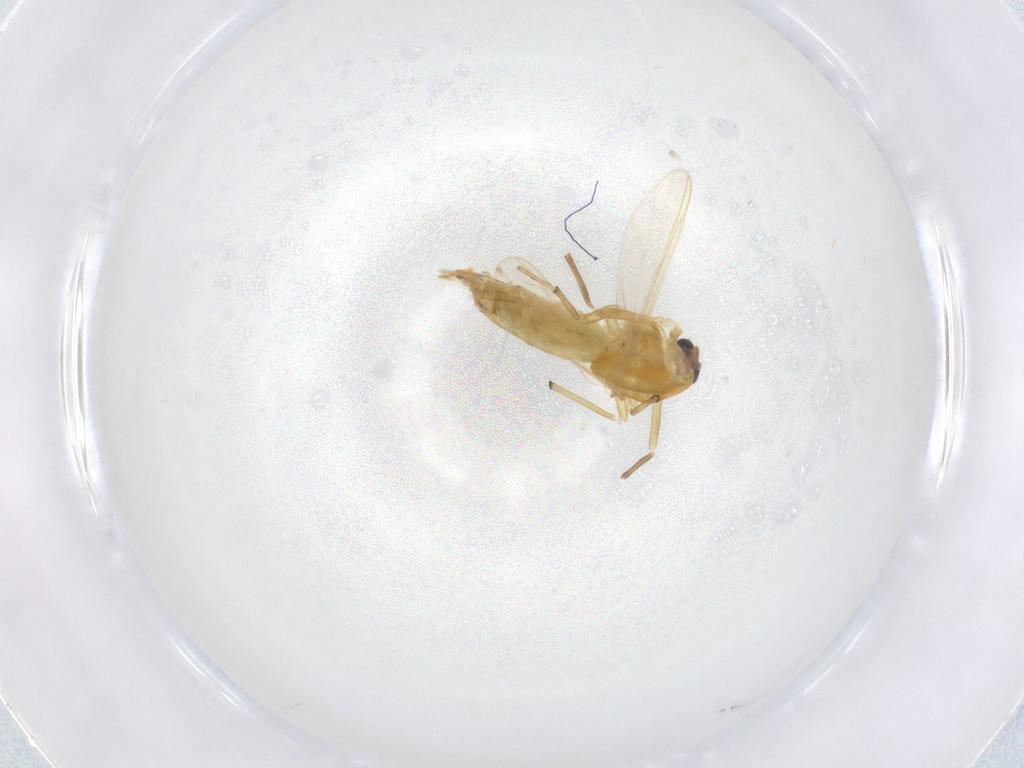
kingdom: Animalia
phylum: Arthropoda
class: Insecta
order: Diptera
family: Chironomidae
